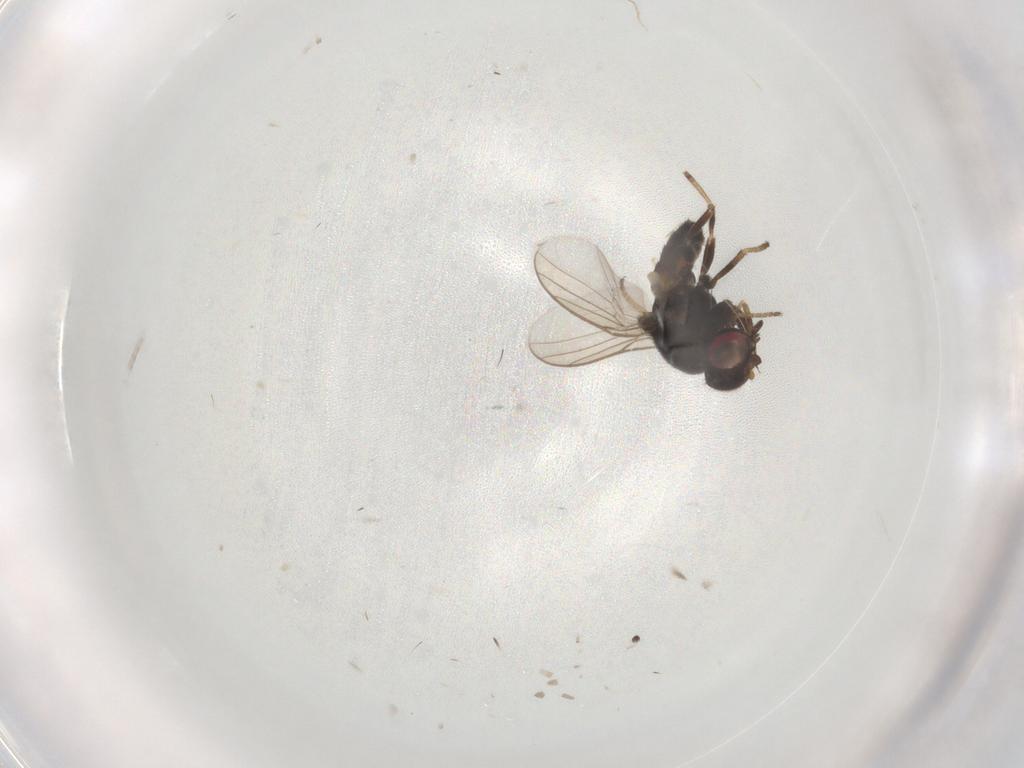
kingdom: Animalia
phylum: Arthropoda
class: Insecta
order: Diptera
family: Chloropidae
